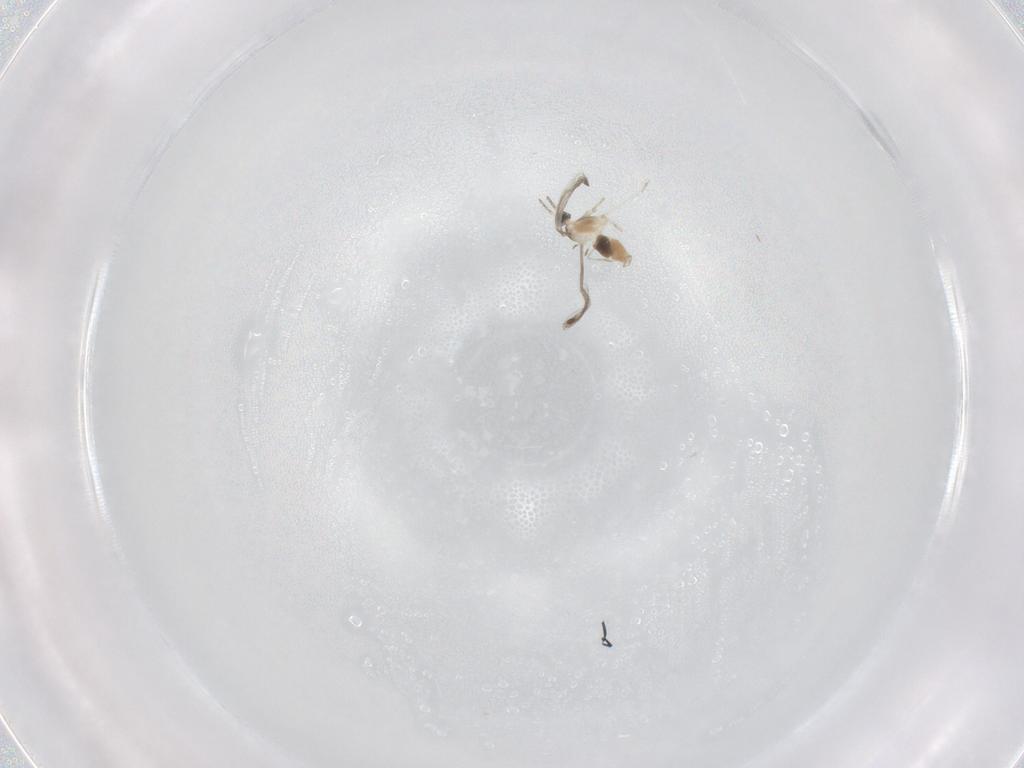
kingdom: Animalia
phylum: Arthropoda
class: Insecta
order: Diptera
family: Cecidomyiidae
